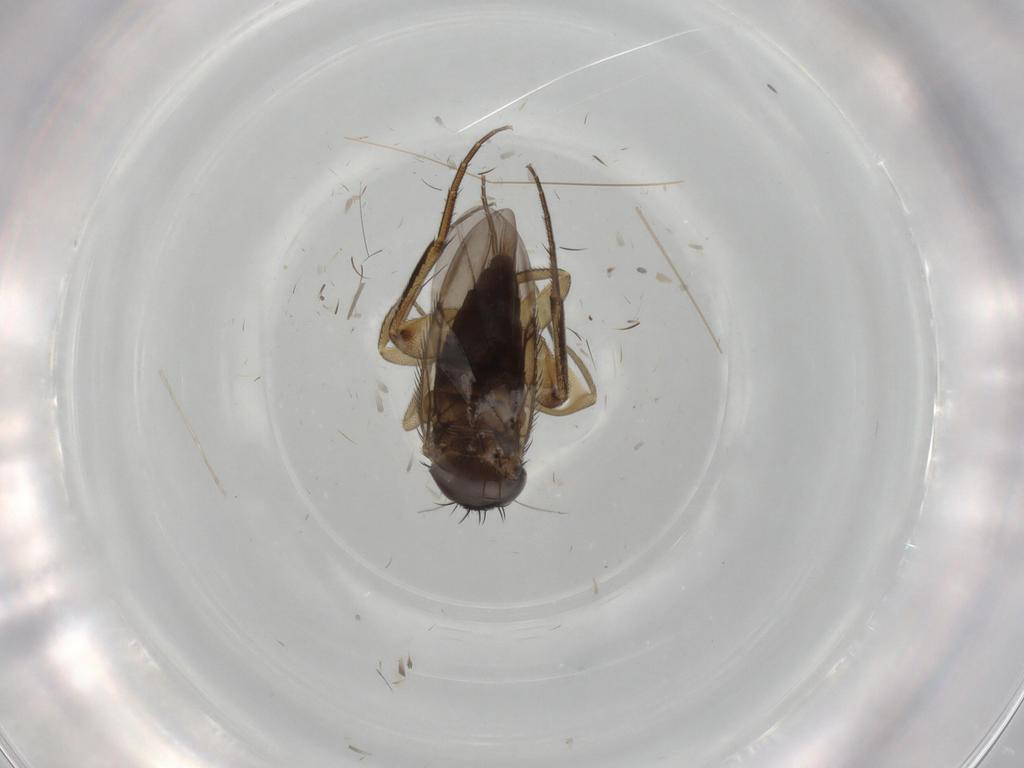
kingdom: Animalia
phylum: Arthropoda
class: Insecta
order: Diptera
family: Phoridae
